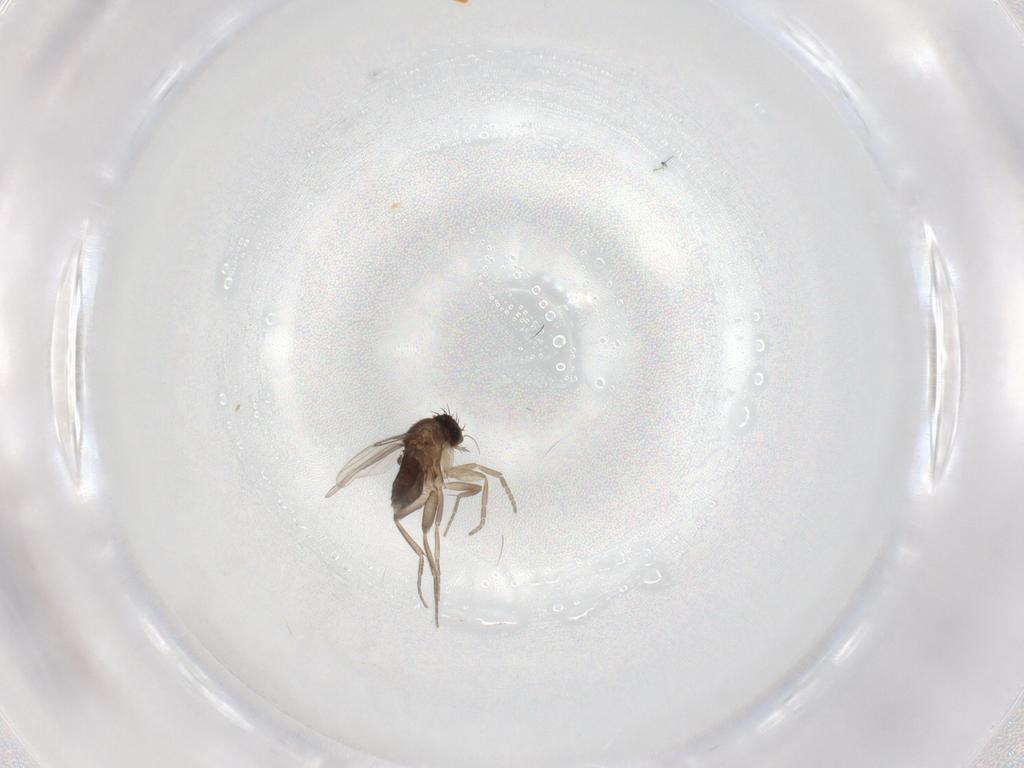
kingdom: Animalia
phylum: Arthropoda
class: Insecta
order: Diptera
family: Phoridae
